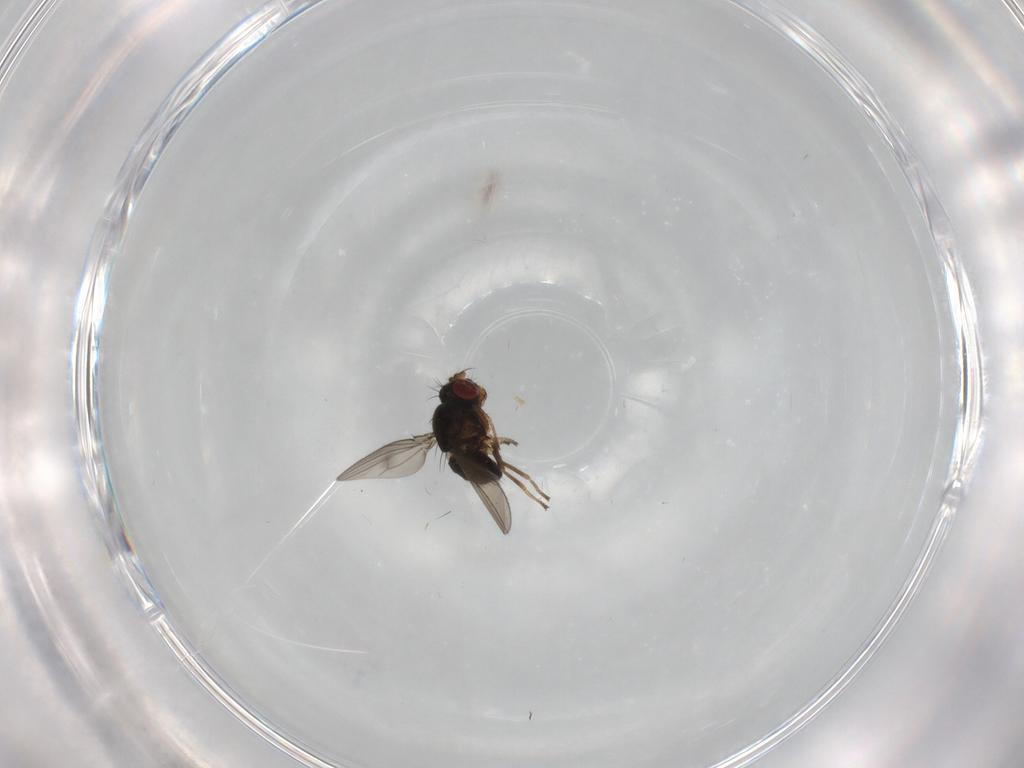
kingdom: Animalia
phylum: Arthropoda
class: Insecta
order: Diptera
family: Ephydridae
